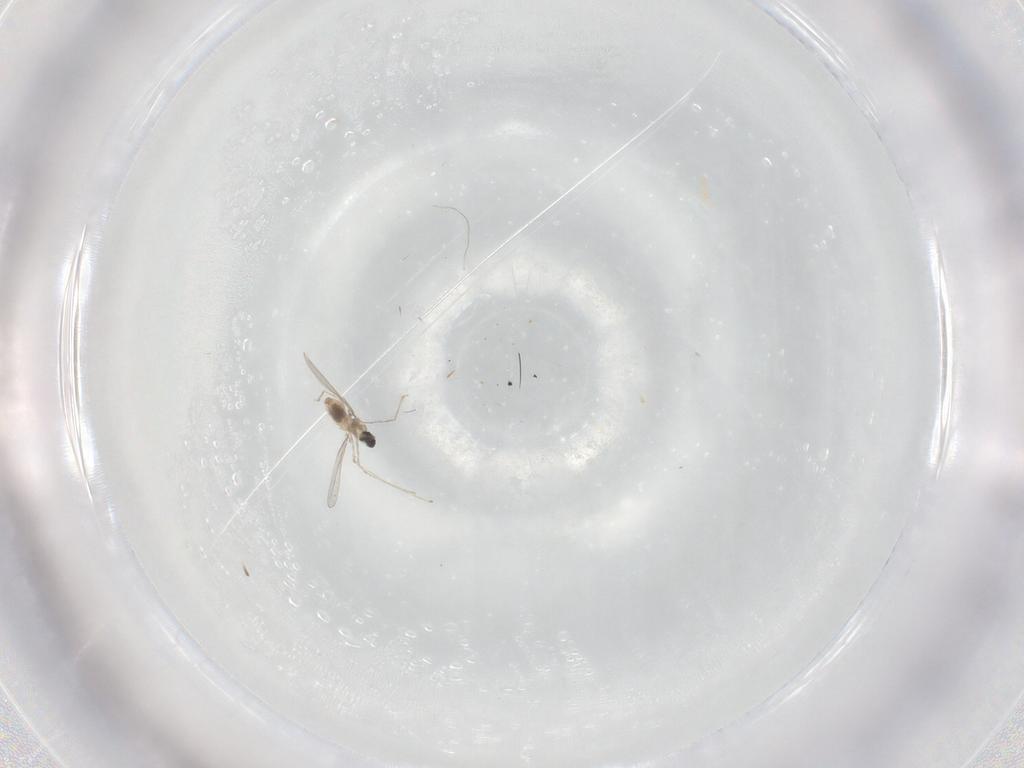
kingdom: Animalia
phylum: Arthropoda
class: Insecta
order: Diptera
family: Cecidomyiidae
